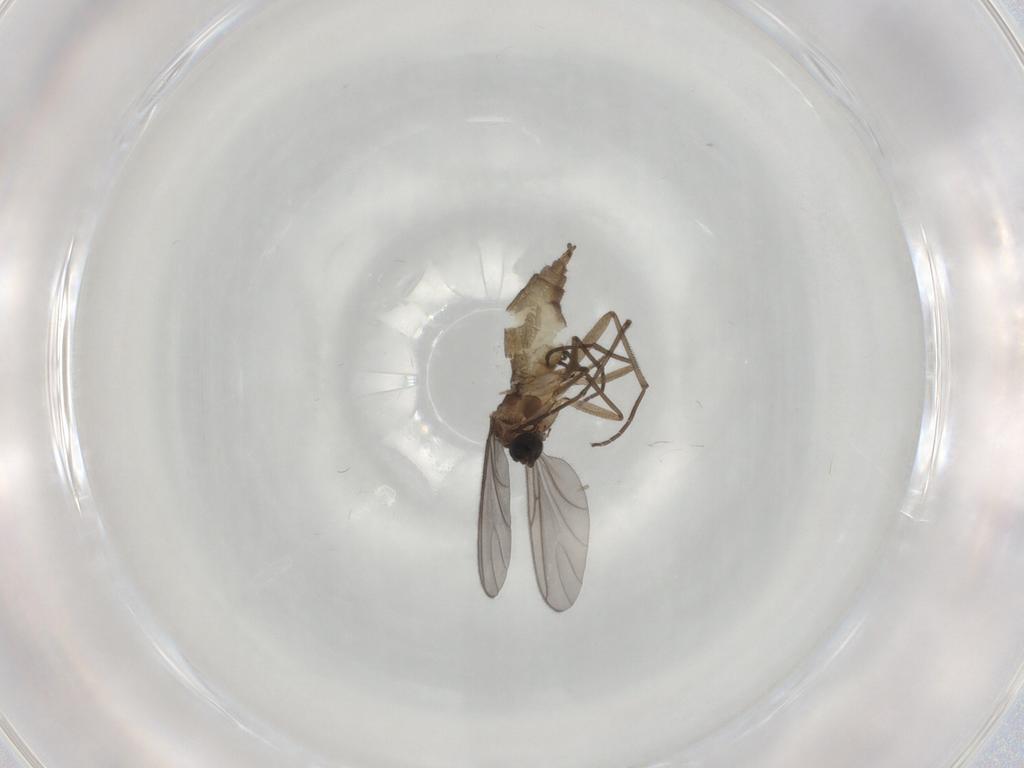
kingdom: Animalia
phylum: Arthropoda
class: Insecta
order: Diptera
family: Sciaridae
